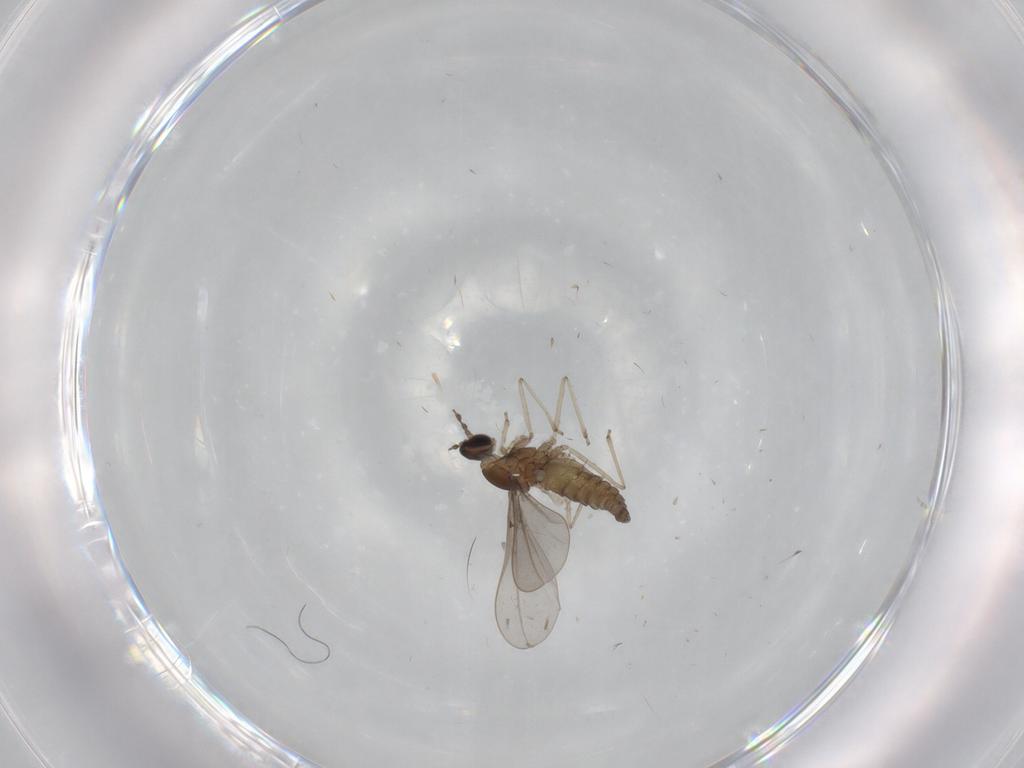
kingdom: Animalia
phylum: Arthropoda
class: Insecta
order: Diptera
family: Cecidomyiidae
